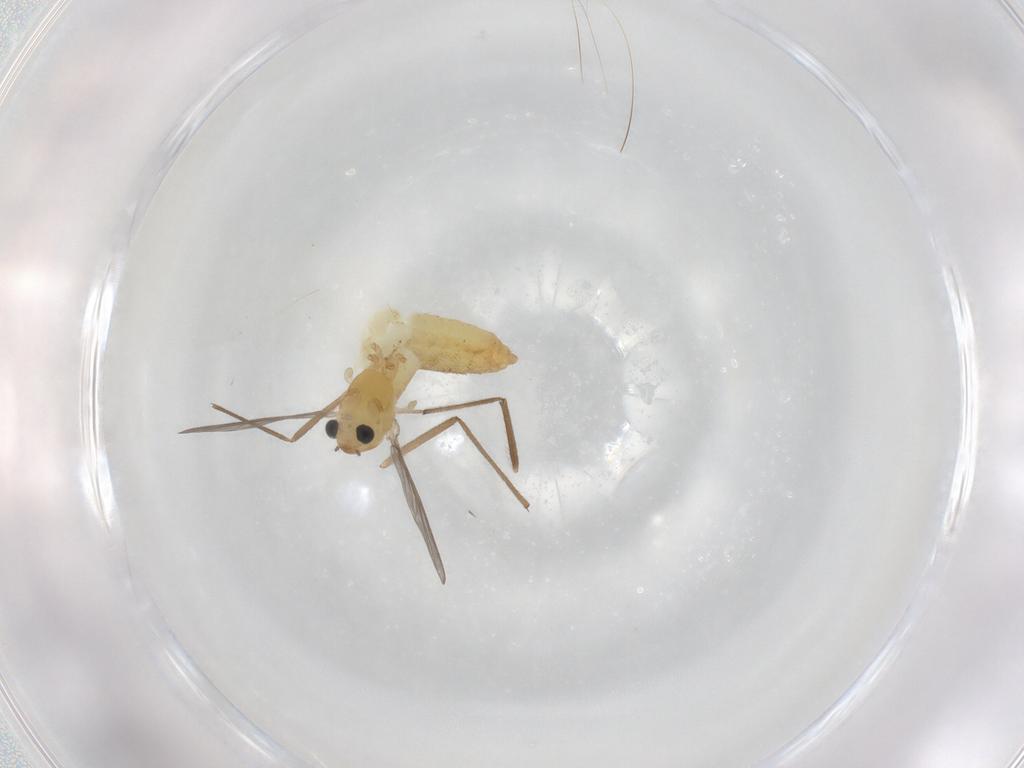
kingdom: Animalia
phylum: Arthropoda
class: Insecta
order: Diptera
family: Chironomidae
